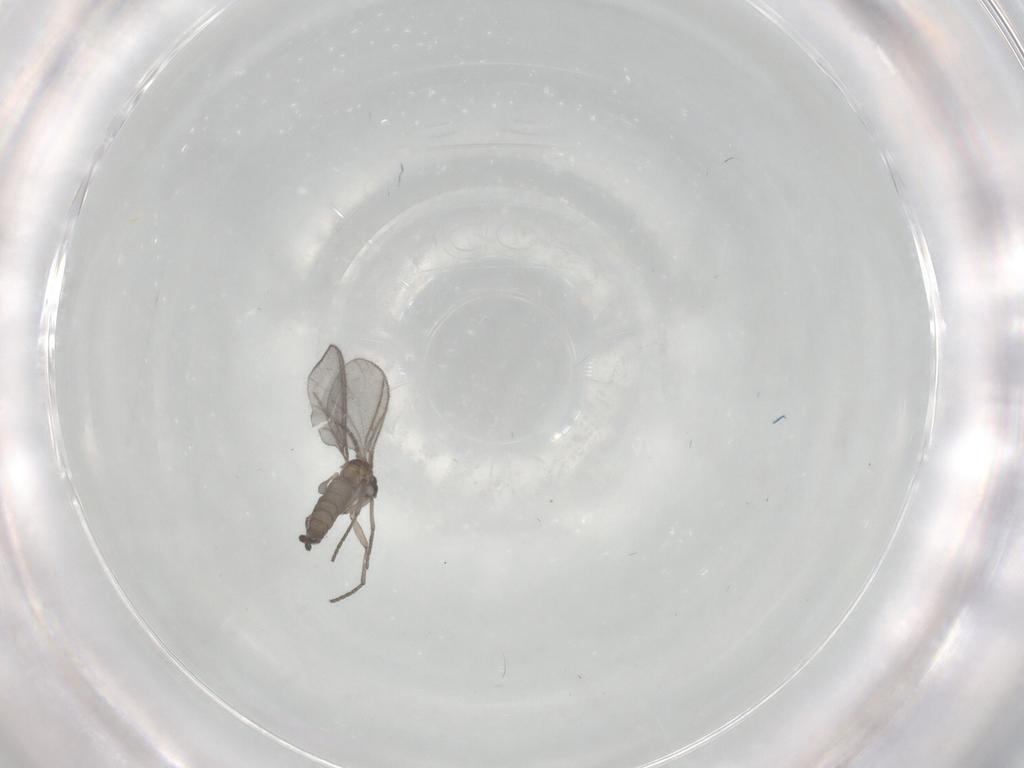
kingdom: Animalia
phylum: Arthropoda
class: Insecta
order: Diptera
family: Sciaridae
